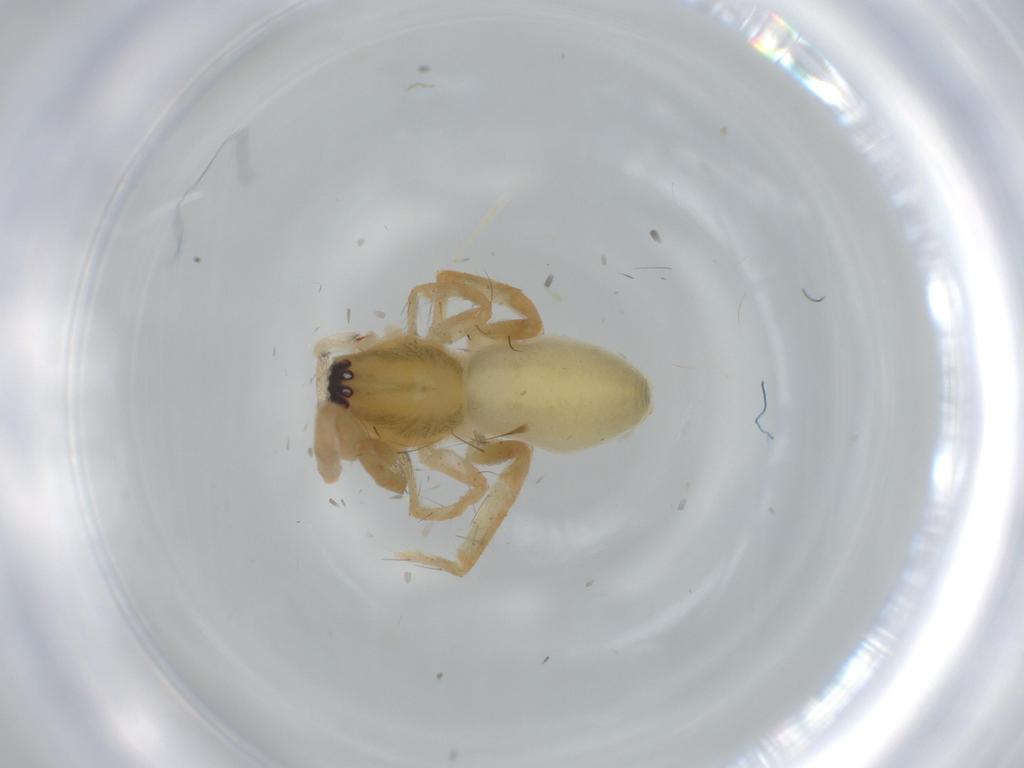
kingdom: Animalia
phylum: Arthropoda
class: Arachnida
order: Araneae
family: Anyphaenidae
